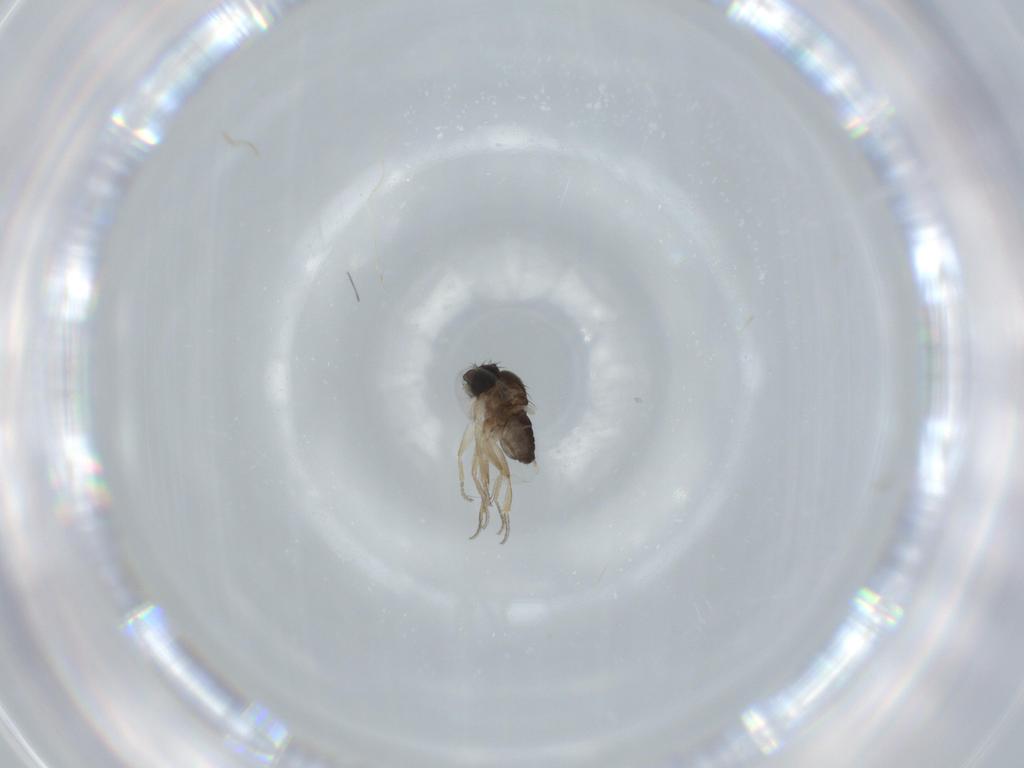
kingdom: Animalia
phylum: Arthropoda
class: Insecta
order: Diptera
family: Phoridae
